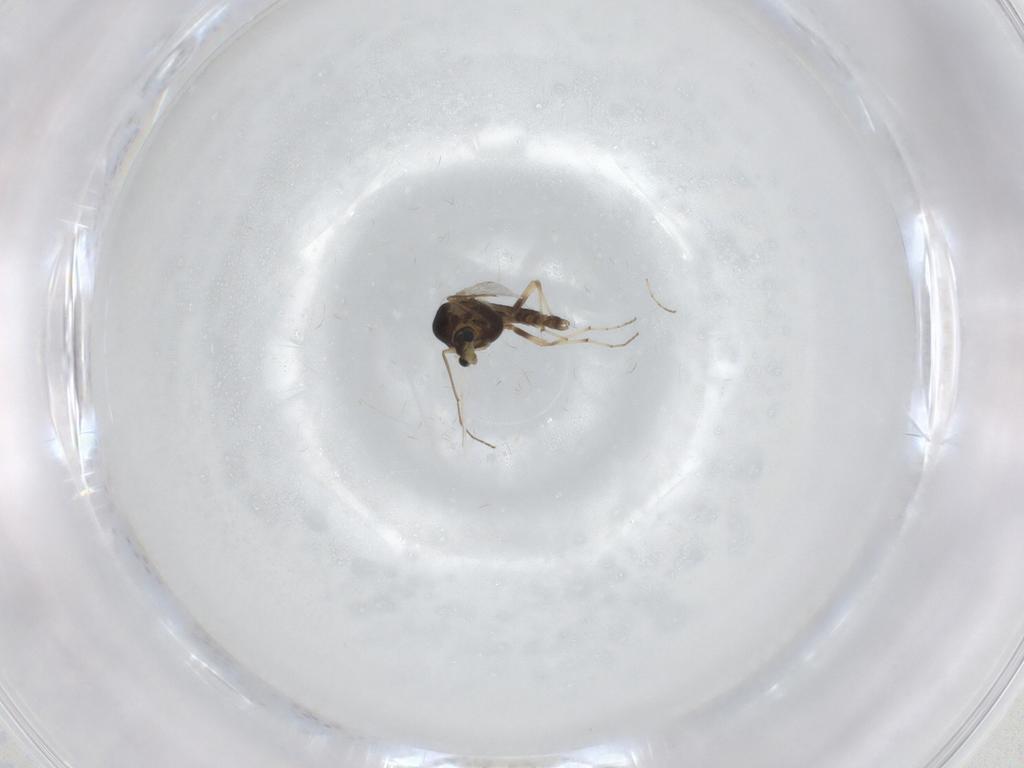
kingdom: Animalia
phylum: Arthropoda
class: Insecta
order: Diptera
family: Chironomidae
